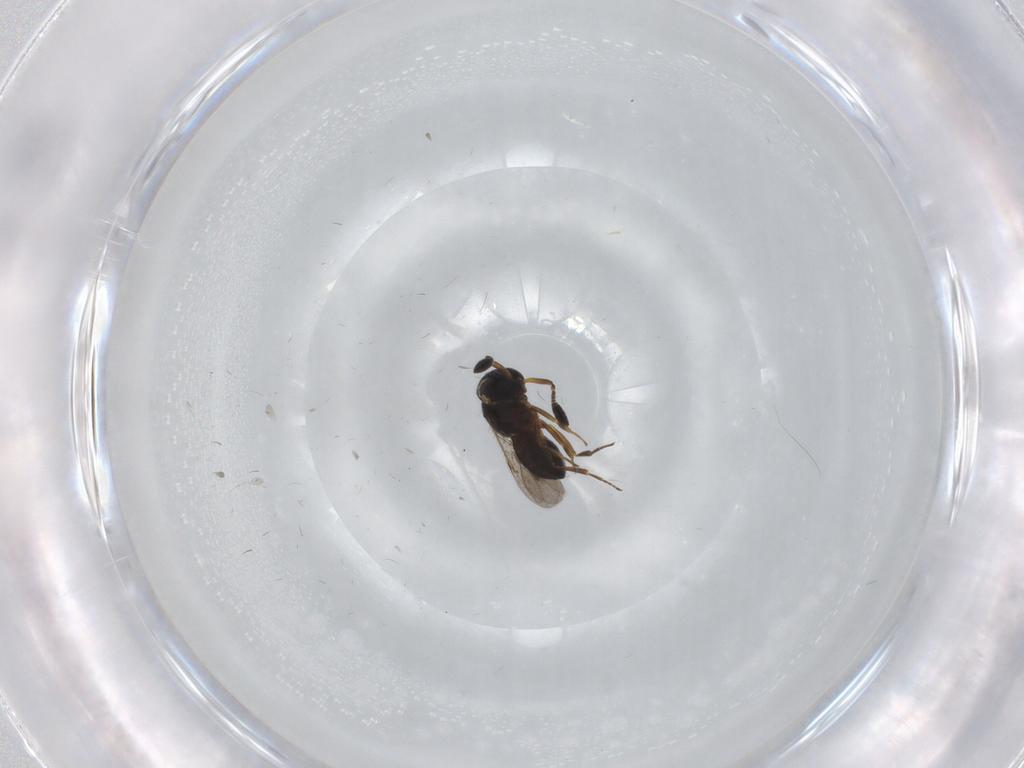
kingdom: Animalia
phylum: Arthropoda
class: Insecta
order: Hymenoptera
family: Scelionidae
